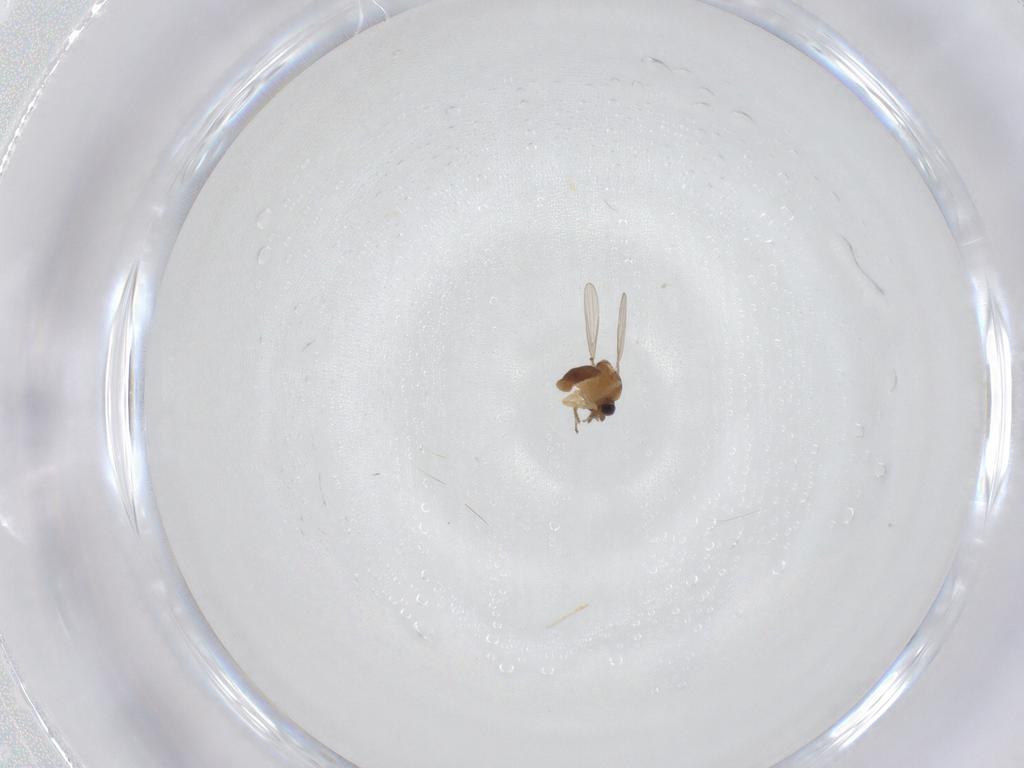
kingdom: Animalia
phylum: Arthropoda
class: Insecta
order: Diptera
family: Ceratopogonidae
